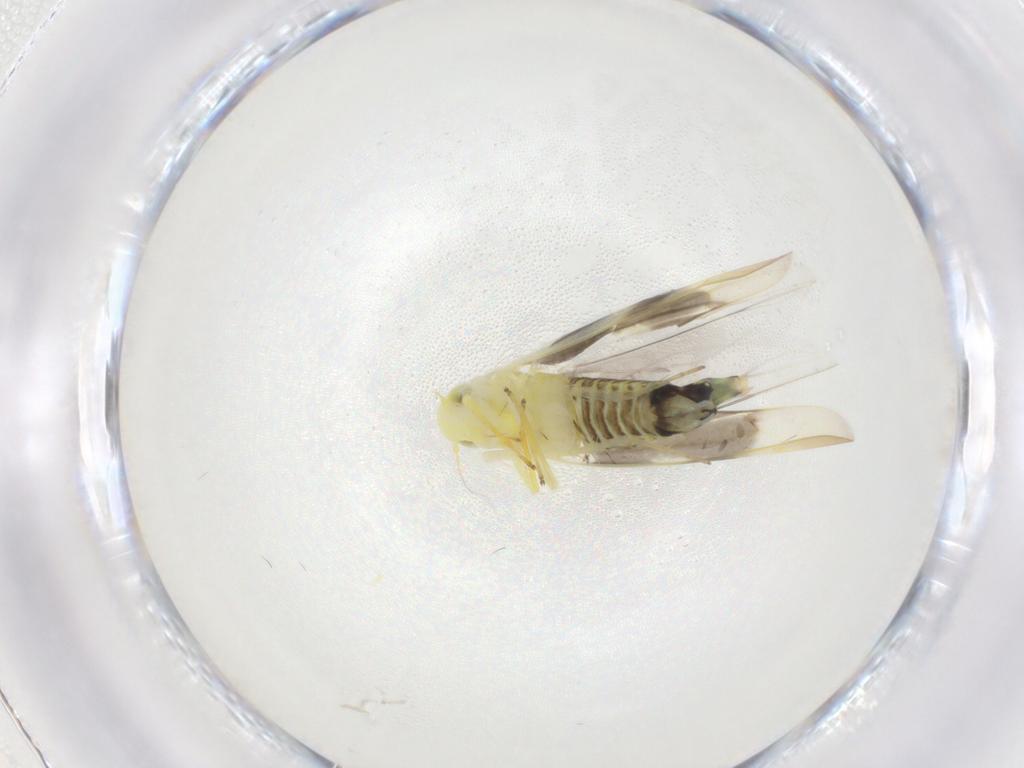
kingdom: Animalia
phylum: Arthropoda
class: Insecta
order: Hemiptera
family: Cicadellidae
